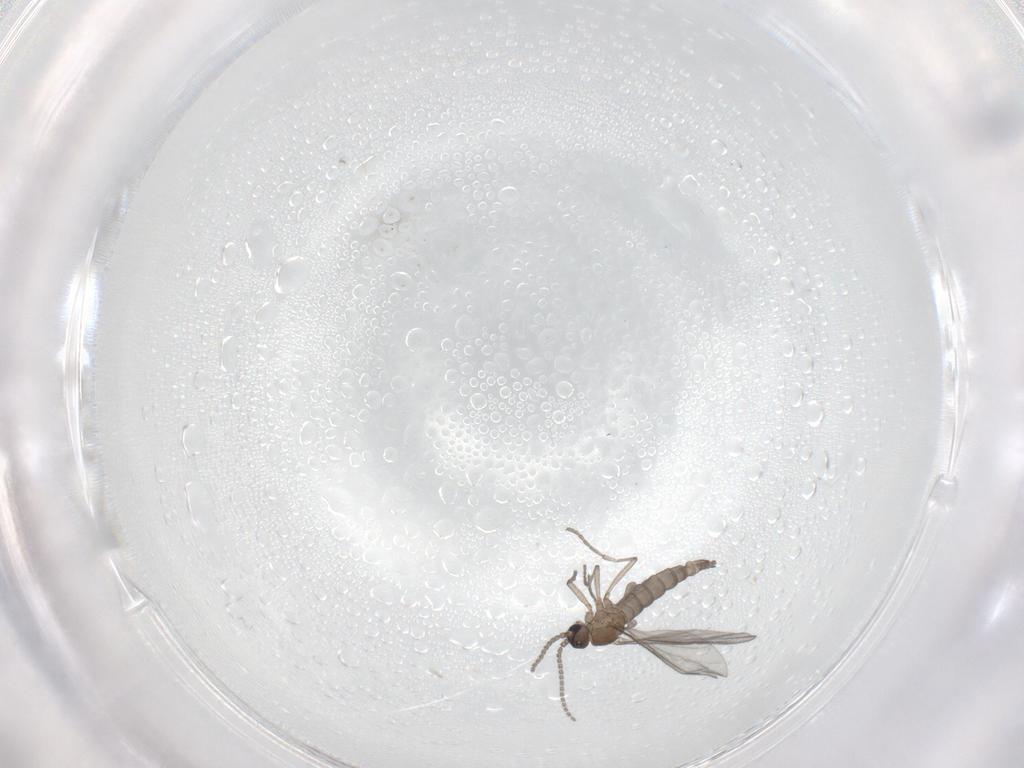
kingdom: Animalia
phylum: Arthropoda
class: Insecta
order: Diptera
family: Sciaridae
